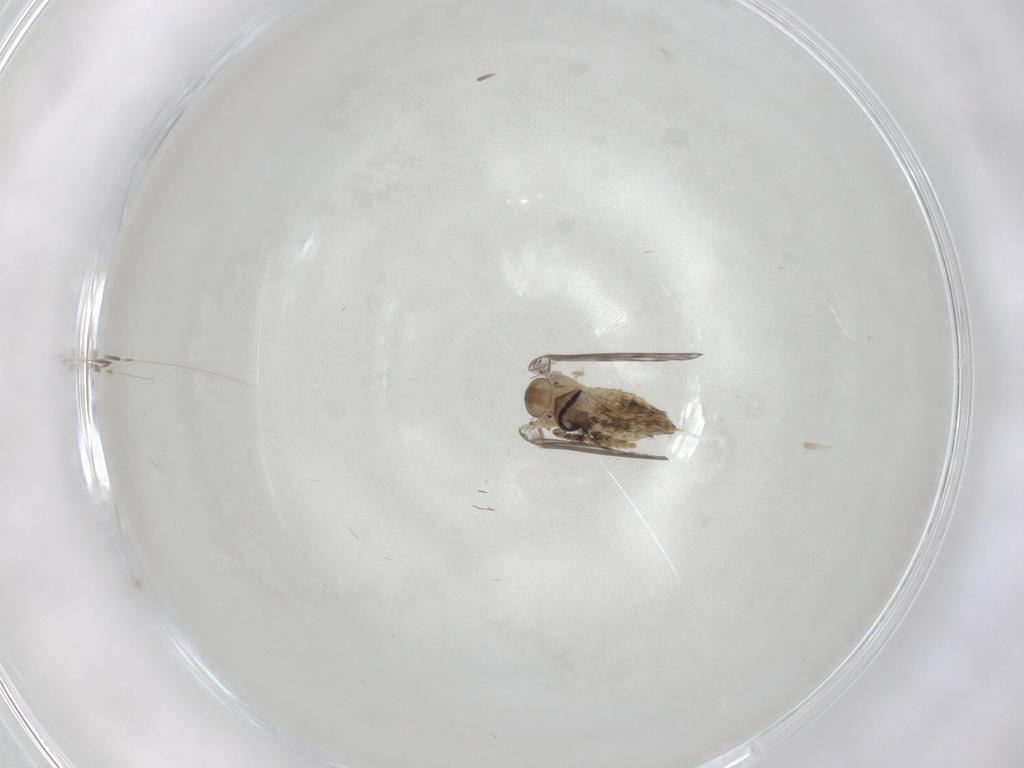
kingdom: Animalia
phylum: Arthropoda
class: Insecta
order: Diptera
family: Psychodidae
